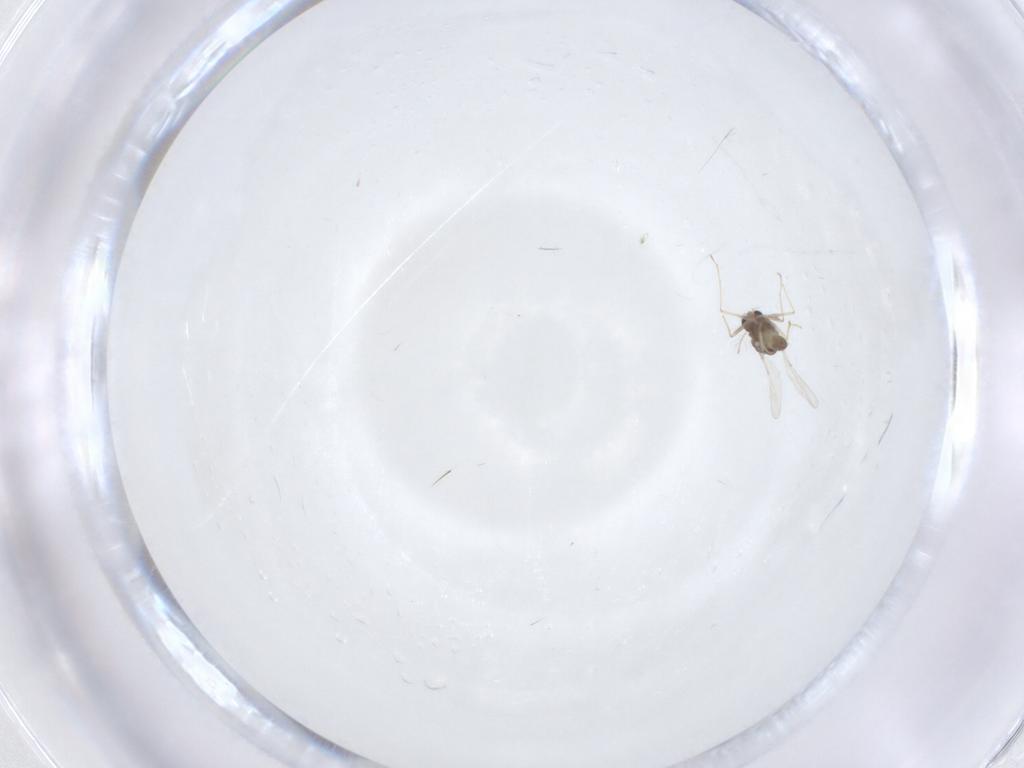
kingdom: Animalia
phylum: Arthropoda
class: Insecta
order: Diptera
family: Chironomidae
